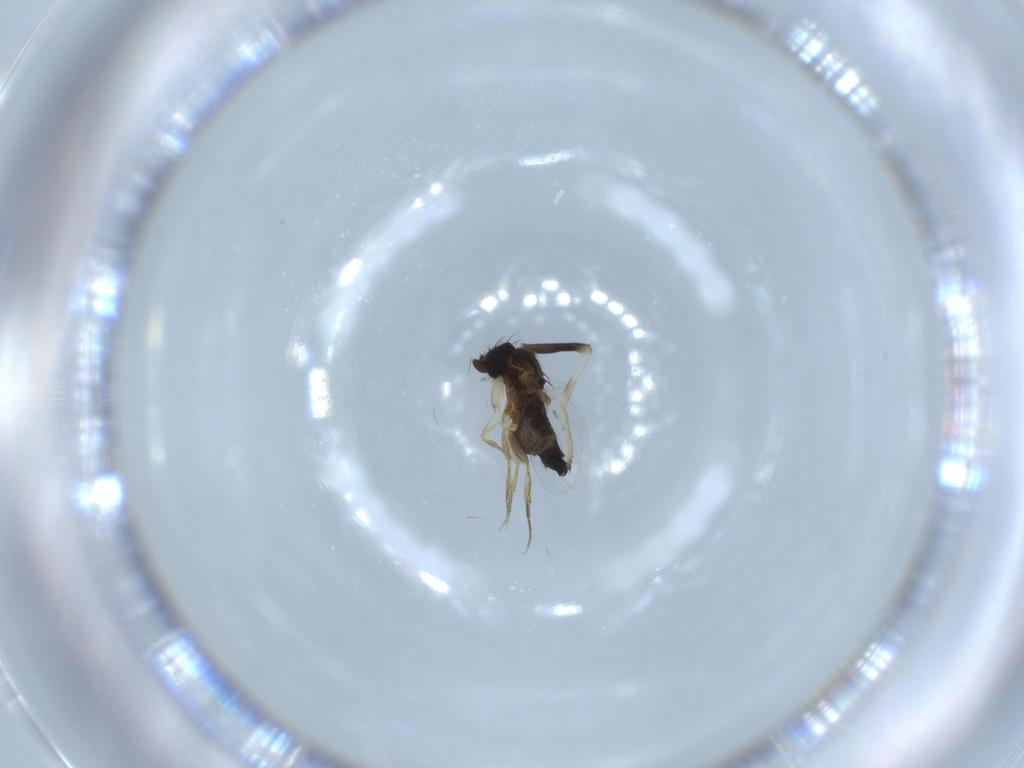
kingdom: Animalia
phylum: Arthropoda
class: Insecta
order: Diptera
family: Stratiomyidae
